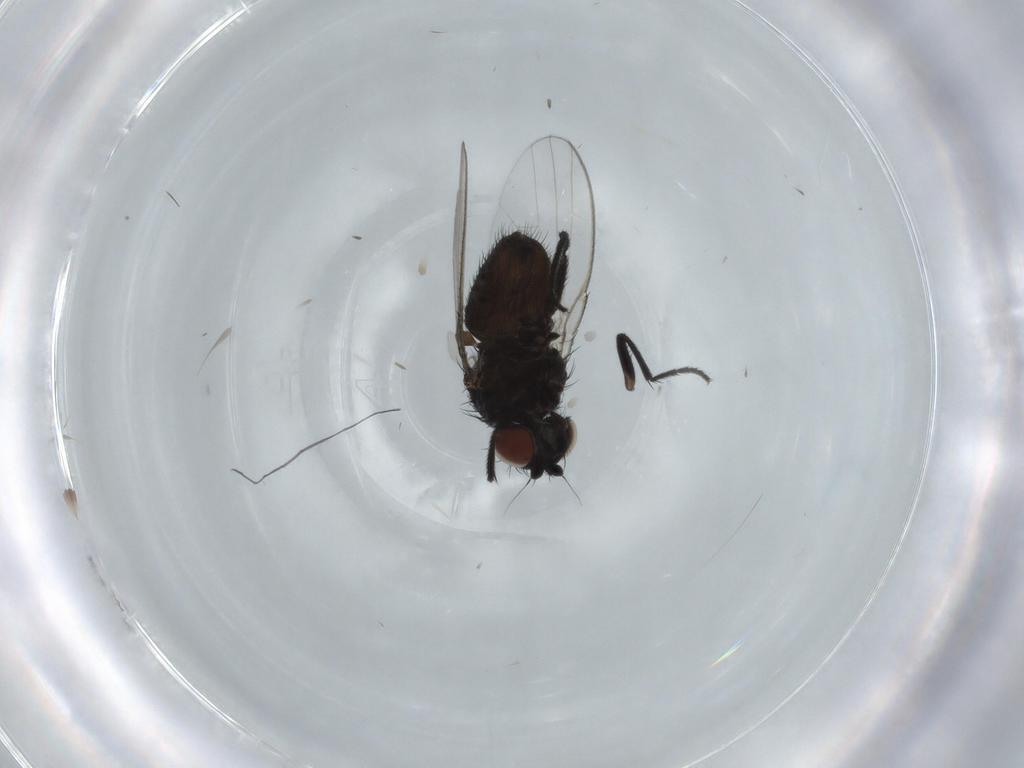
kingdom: Animalia
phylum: Arthropoda
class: Insecta
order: Diptera
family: Milichiidae
